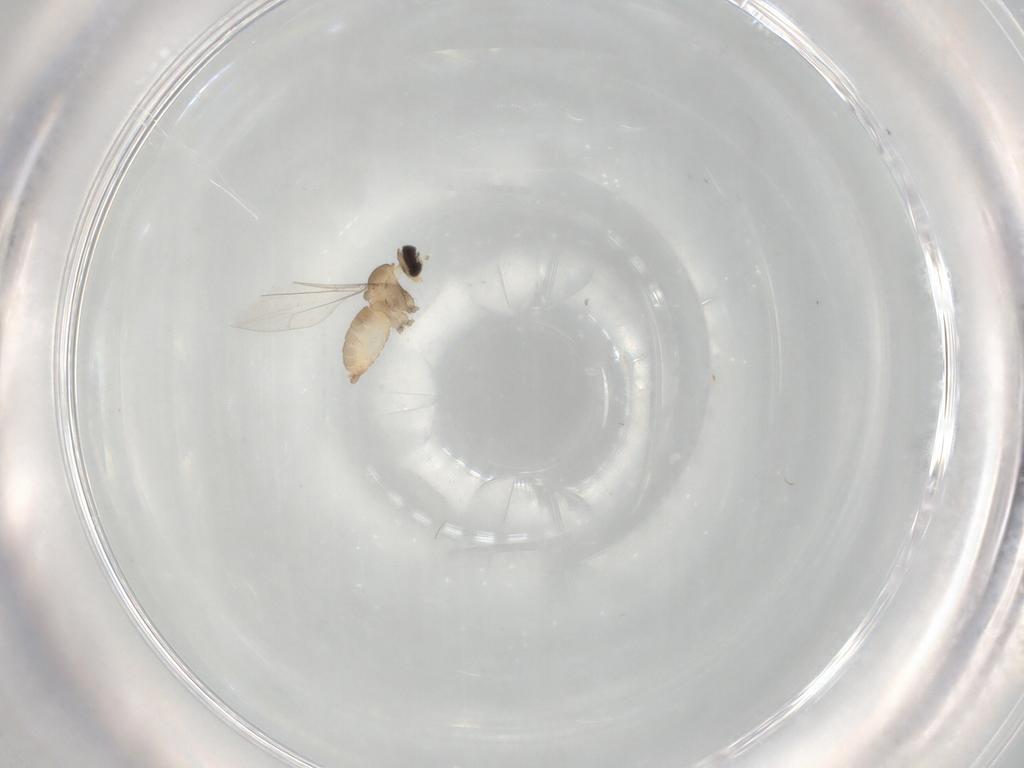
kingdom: Animalia
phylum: Arthropoda
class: Insecta
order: Diptera
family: Cecidomyiidae
